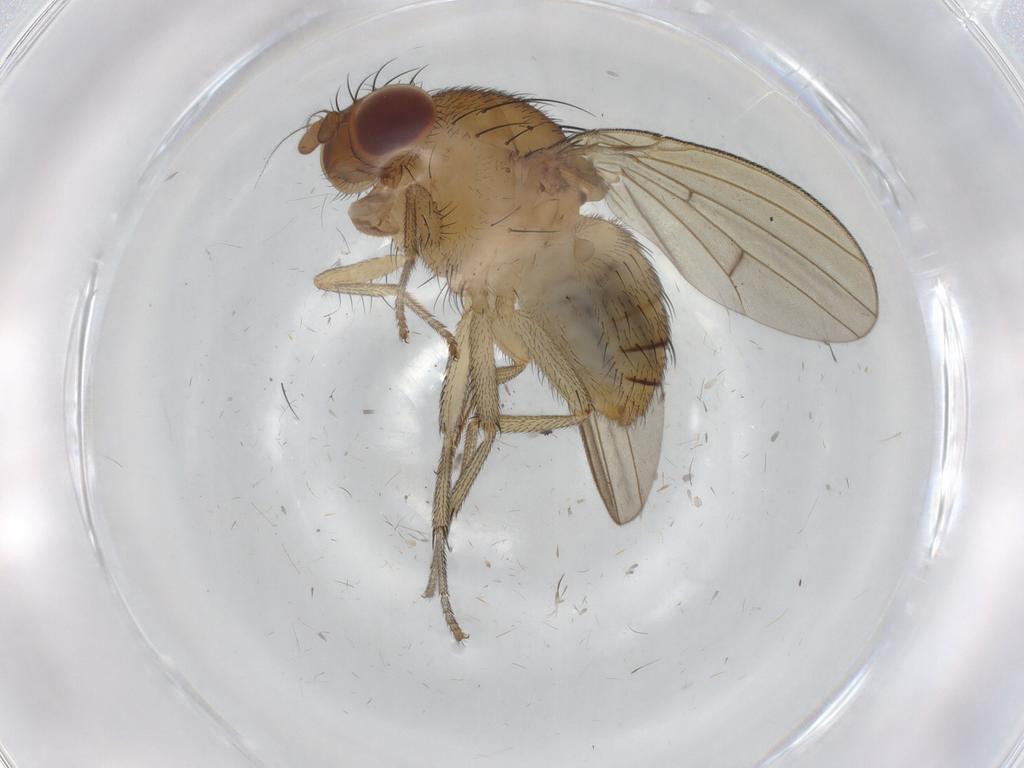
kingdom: Animalia
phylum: Arthropoda
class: Insecta
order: Diptera
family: Lauxaniidae
